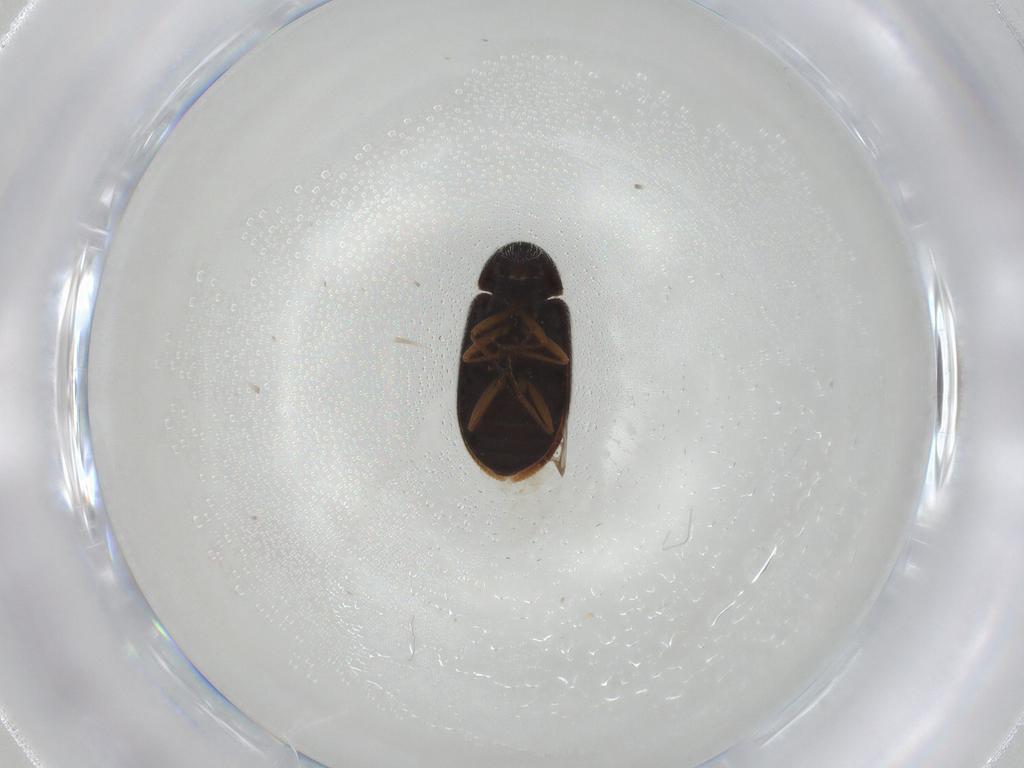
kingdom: Animalia
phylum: Arthropoda
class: Insecta
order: Coleoptera
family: Rhadalidae
